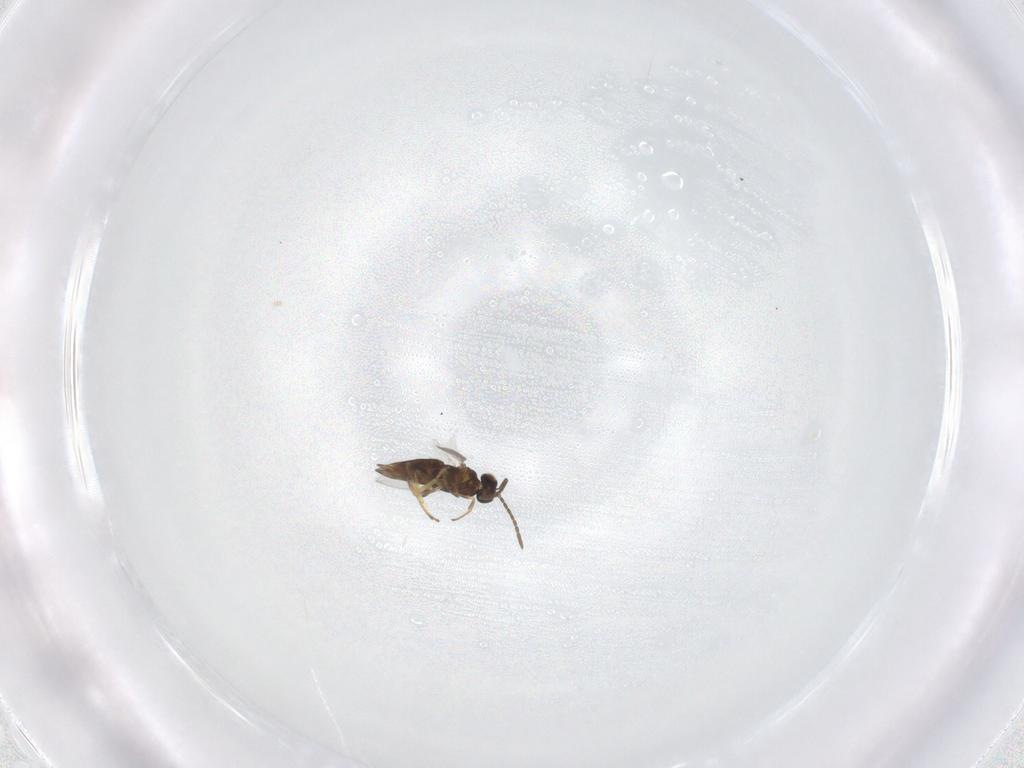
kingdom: Animalia
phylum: Arthropoda
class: Insecta
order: Hymenoptera
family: Encyrtidae
